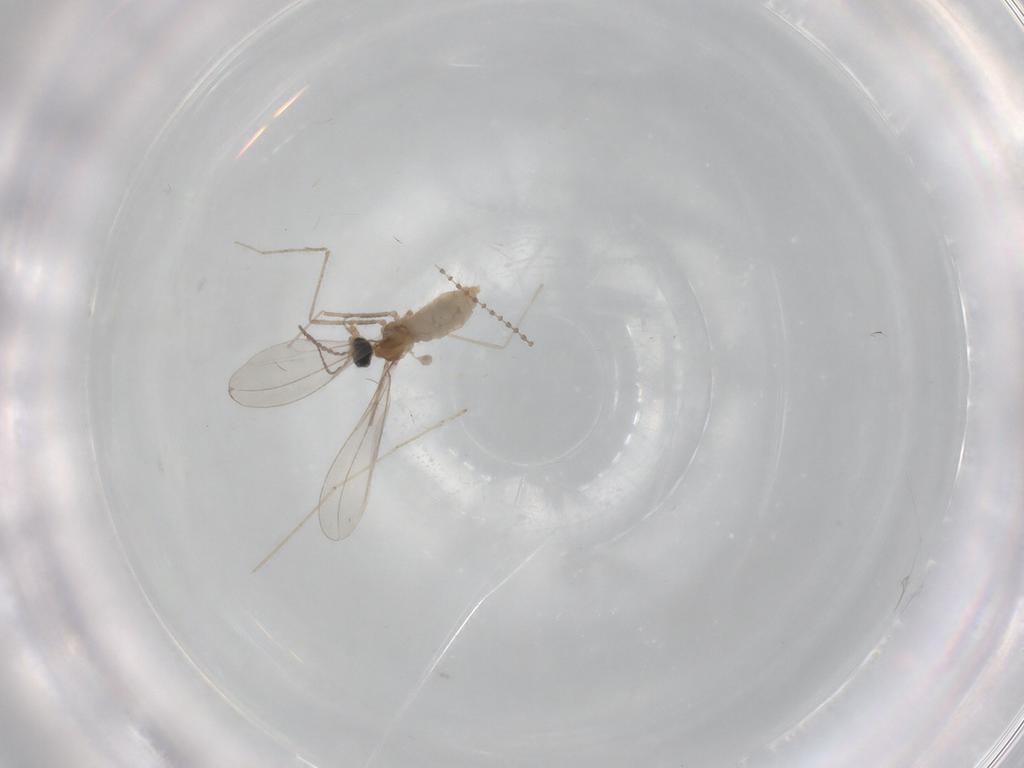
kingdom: Animalia
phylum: Arthropoda
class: Insecta
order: Diptera
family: Cecidomyiidae
